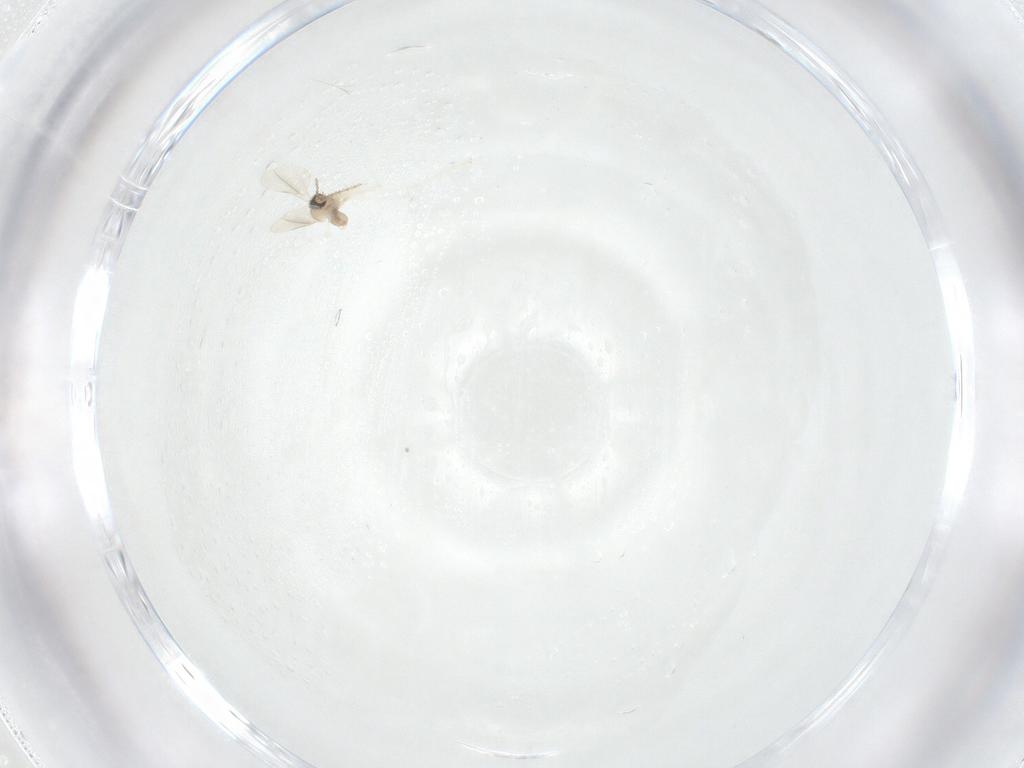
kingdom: Animalia
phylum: Arthropoda
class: Insecta
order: Diptera
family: Cecidomyiidae
